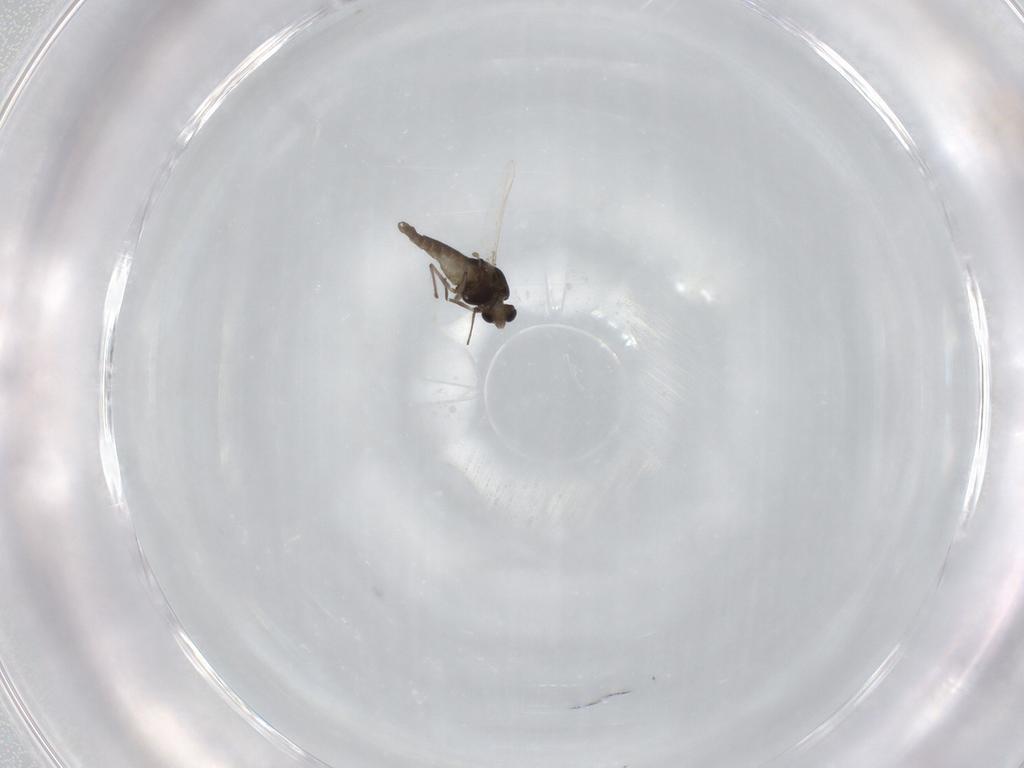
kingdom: Animalia
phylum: Arthropoda
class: Insecta
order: Diptera
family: Chironomidae
